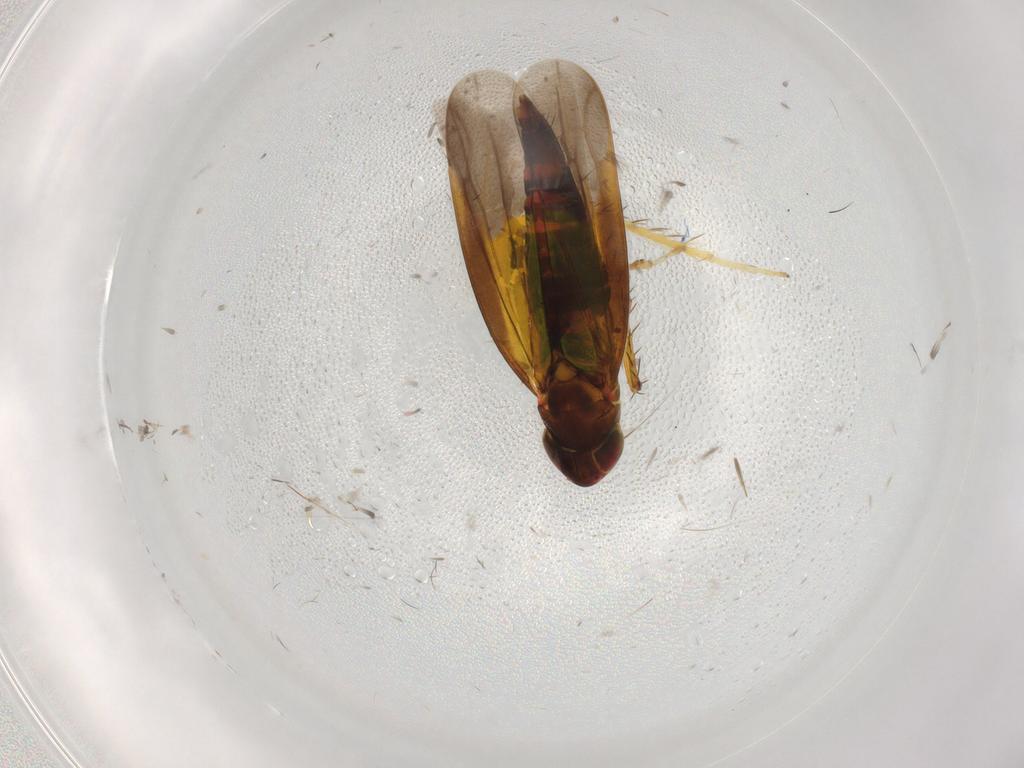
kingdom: Animalia
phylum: Arthropoda
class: Insecta
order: Hemiptera
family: Cicadellidae
